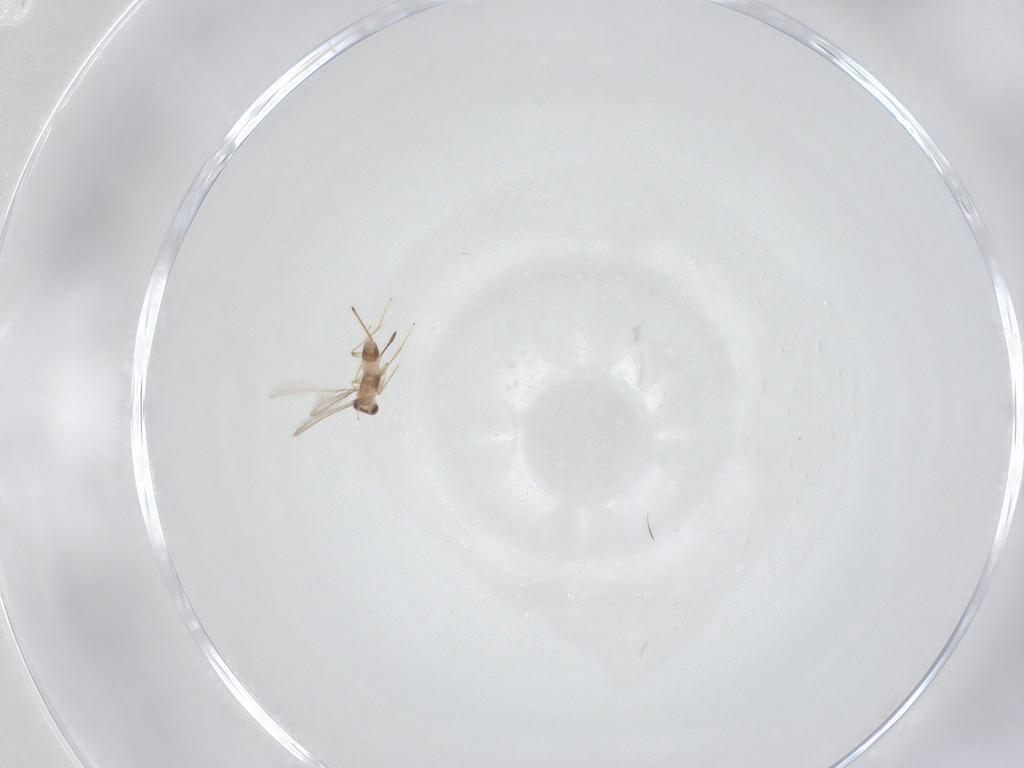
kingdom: Animalia
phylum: Arthropoda
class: Insecta
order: Hymenoptera
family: Mymaridae
